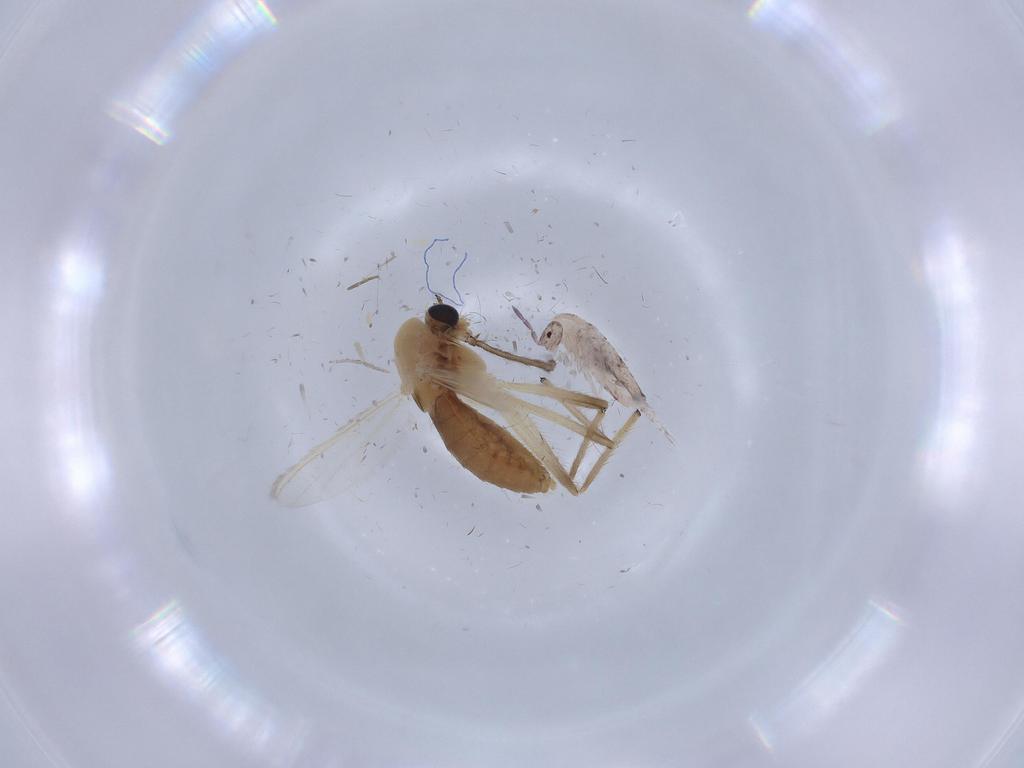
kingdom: Animalia
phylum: Arthropoda
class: Insecta
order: Diptera
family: Chironomidae
